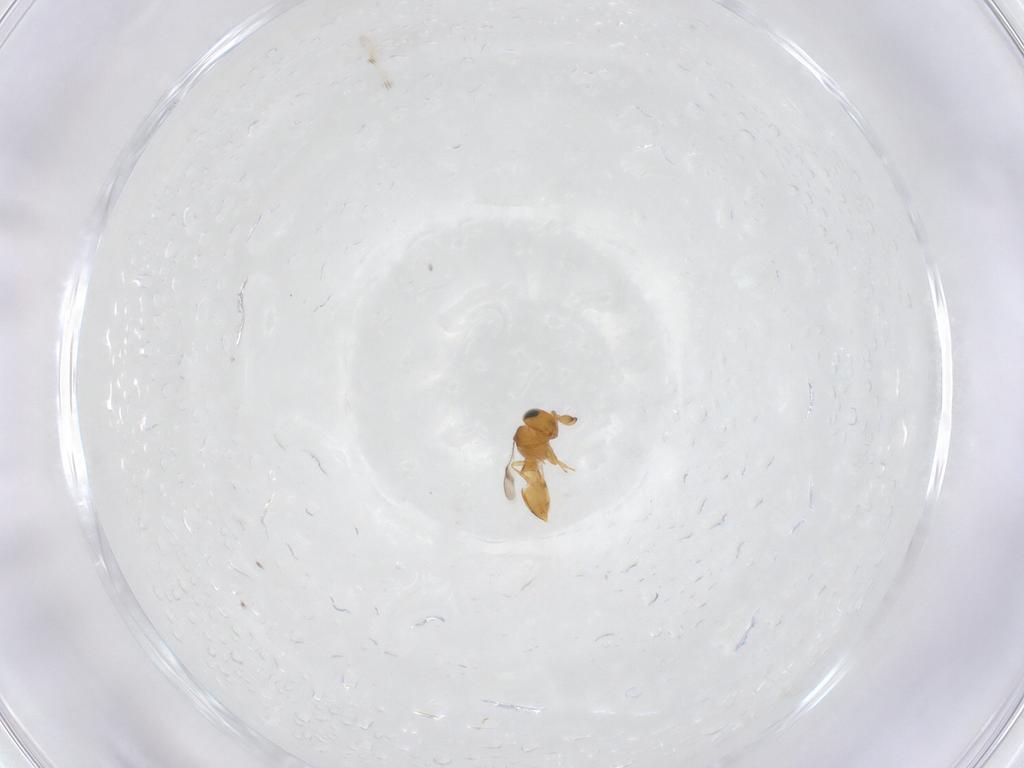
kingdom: Animalia
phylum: Arthropoda
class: Insecta
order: Hymenoptera
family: Scelionidae
